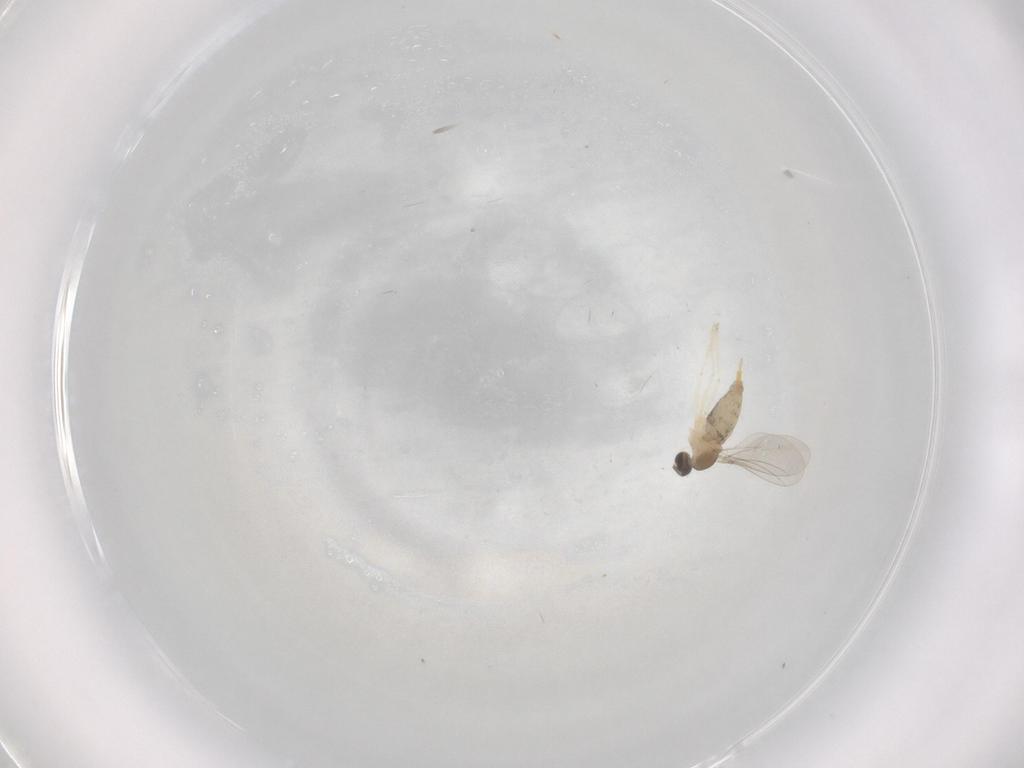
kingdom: Animalia
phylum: Arthropoda
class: Insecta
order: Diptera
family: Cecidomyiidae
